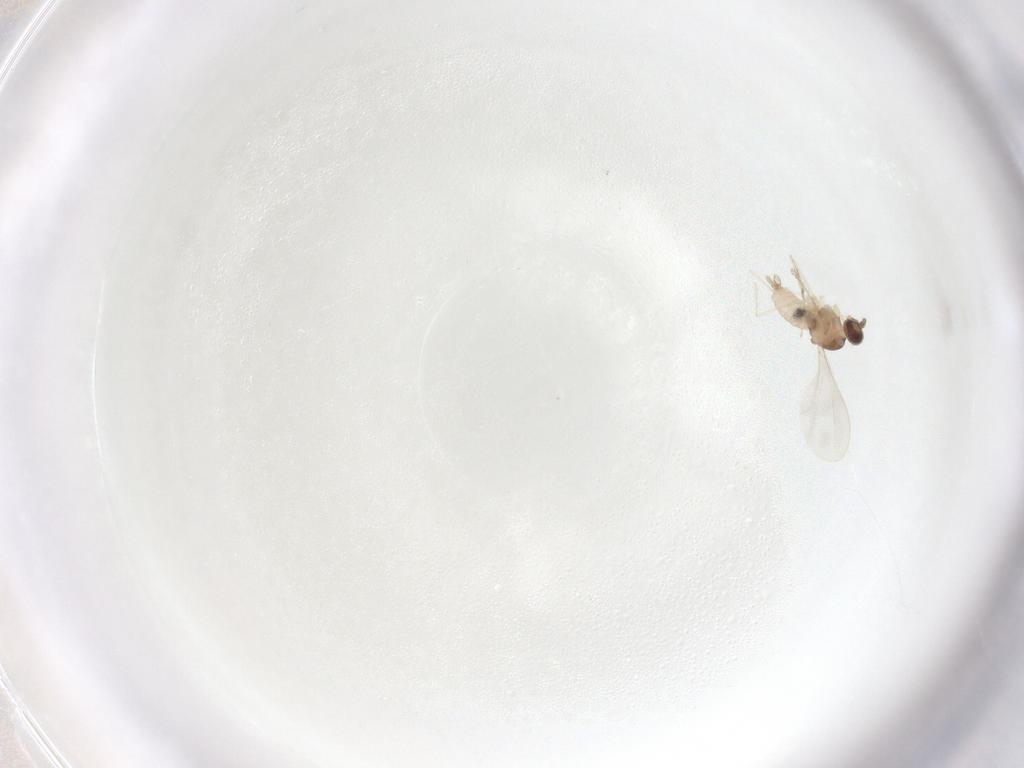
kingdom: Animalia
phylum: Arthropoda
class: Insecta
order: Diptera
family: Cecidomyiidae
